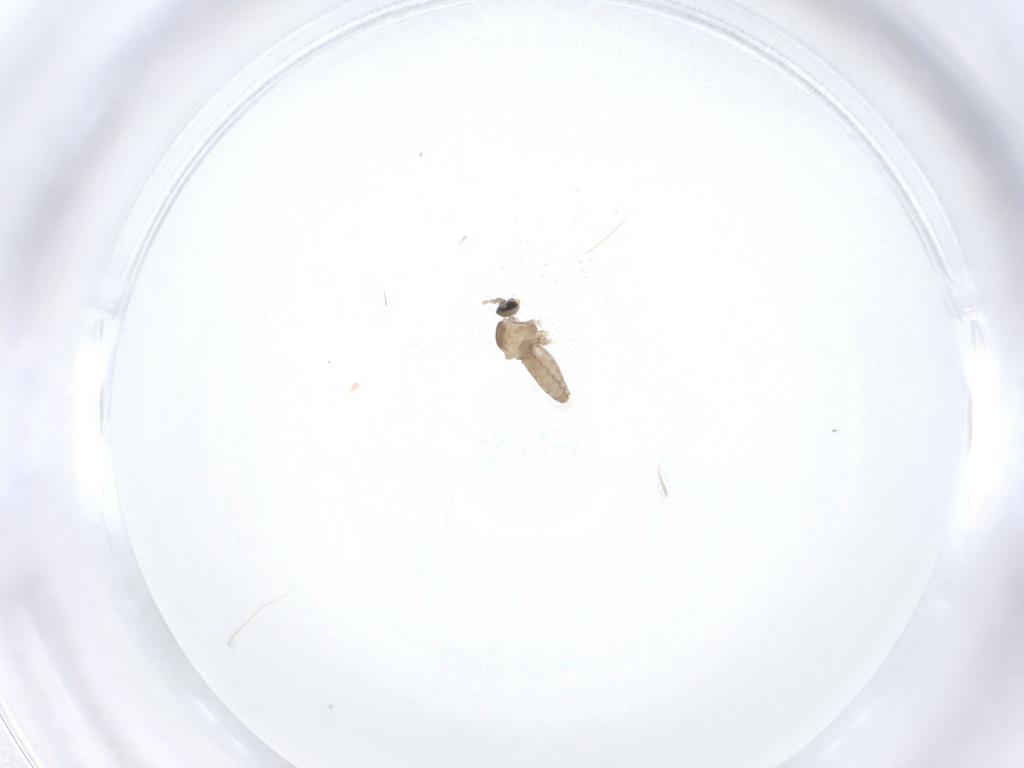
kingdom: Animalia
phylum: Arthropoda
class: Insecta
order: Diptera
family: Cecidomyiidae
